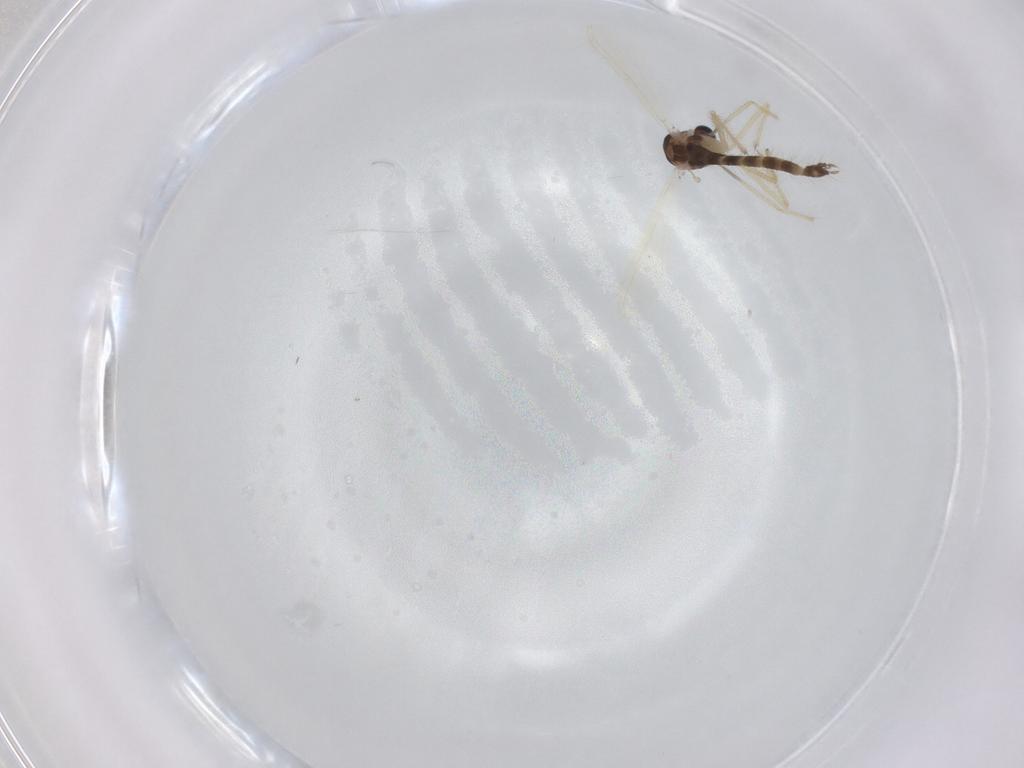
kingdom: Animalia
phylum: Arthropoda
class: Insecta
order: Diptera
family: Chironomidae
